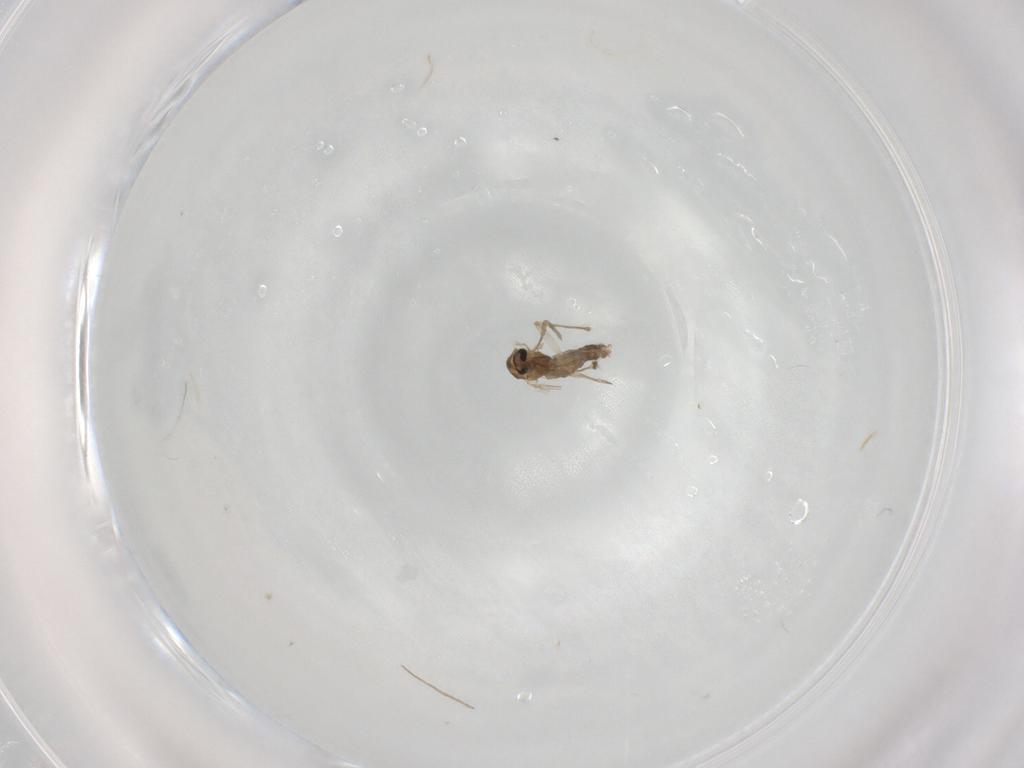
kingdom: Animalia
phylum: Arthropoda
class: Insecta
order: Diptera
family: Chironomidae
